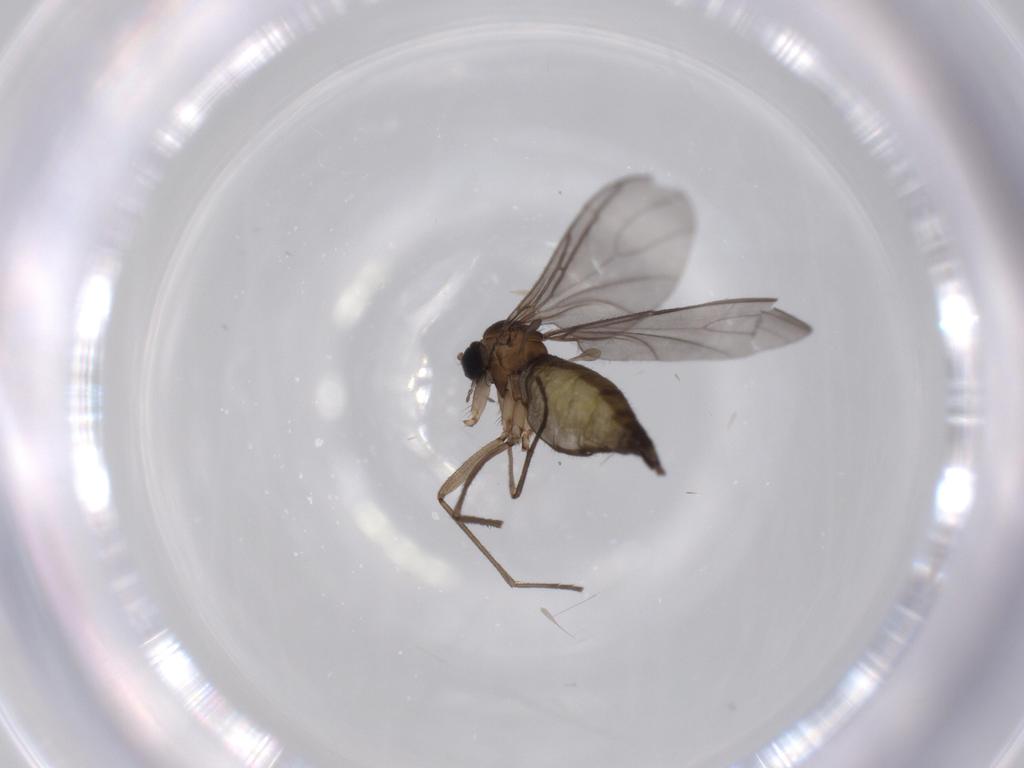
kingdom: Animalia
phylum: Arthropoda
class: Insecta
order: Diptera
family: Sciaridae
